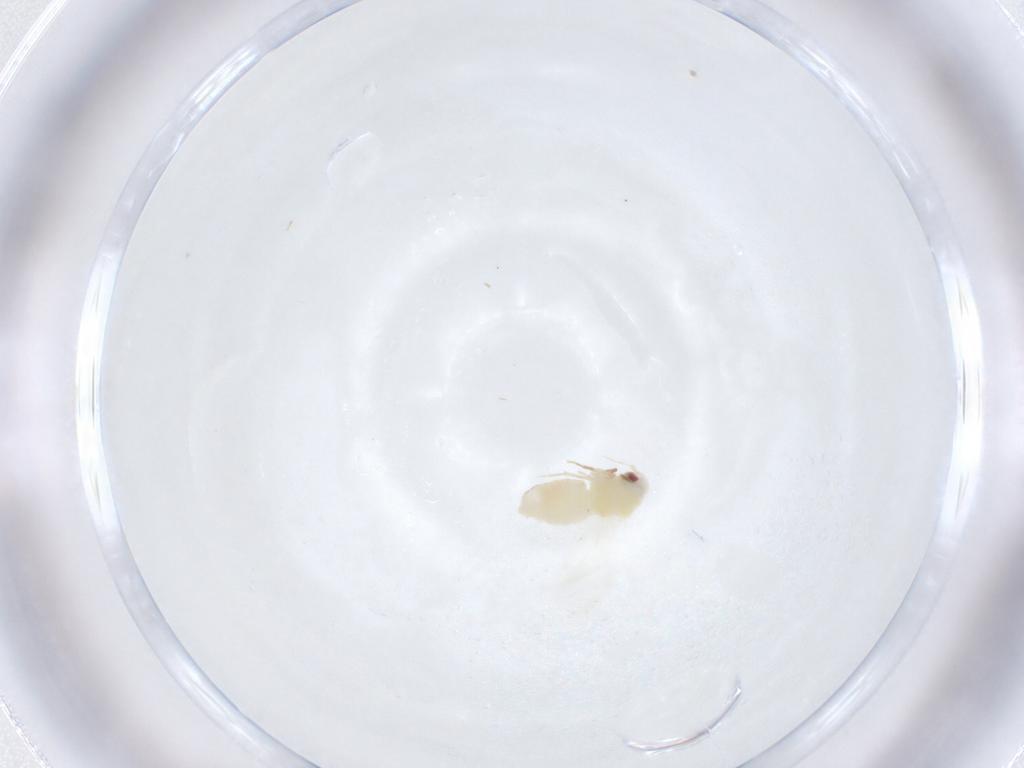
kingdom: Animalia
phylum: Arthropoda
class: Insecta
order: Hemiptera
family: Aleyrodidae
